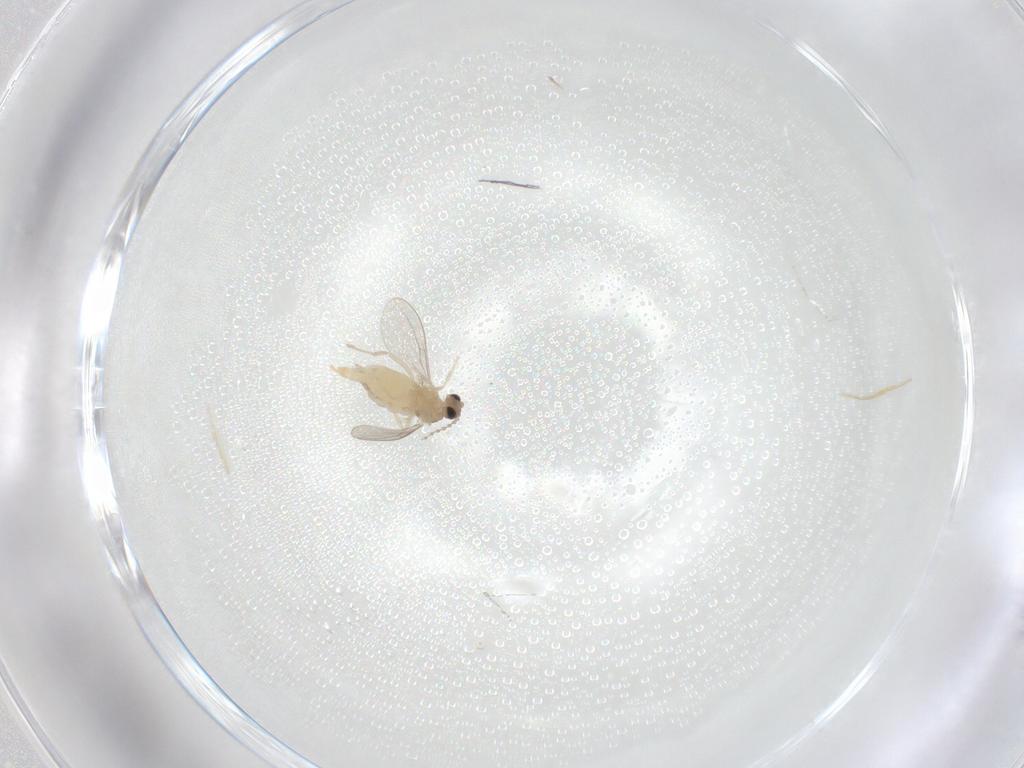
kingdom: Animalia
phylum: Arthropoda
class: Insecta
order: Diptera
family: Cecidomyiidae
